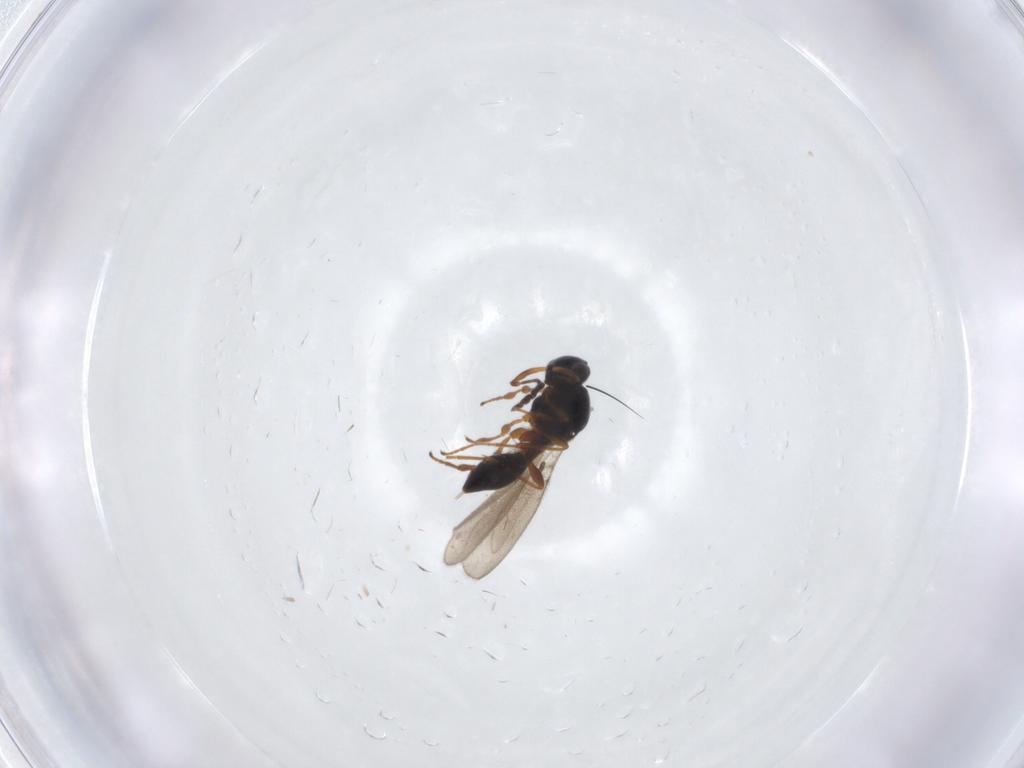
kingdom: Animalia
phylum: Arthropoda
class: Insecta
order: Hymenoptera
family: Platygastridae
